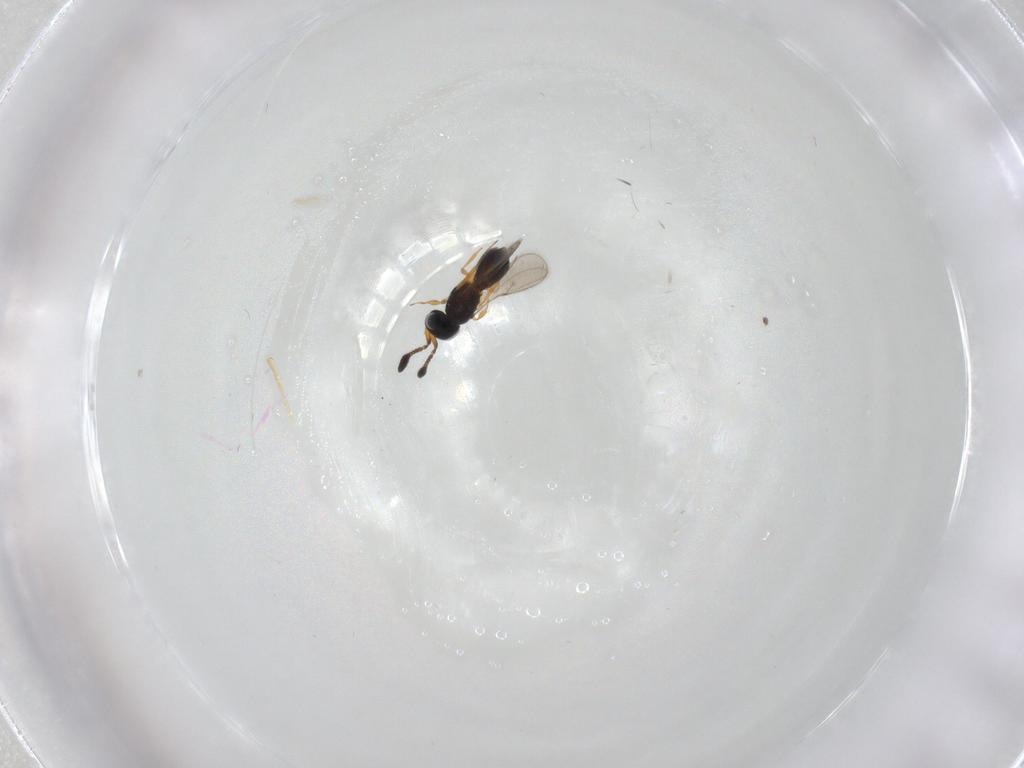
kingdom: Animalia
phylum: Arthropoda
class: Insecta
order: Hymenoptera
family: Scelionidae
